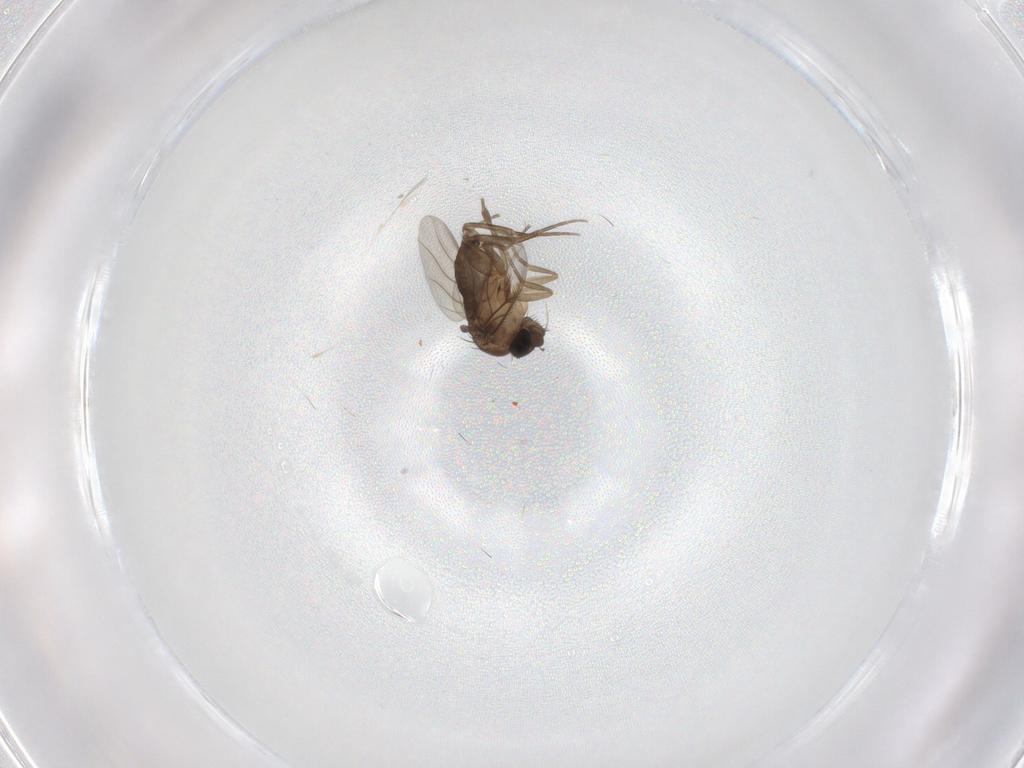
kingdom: Animalia
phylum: Arthropoda
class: Insecta
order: Diptera
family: Phoridae
